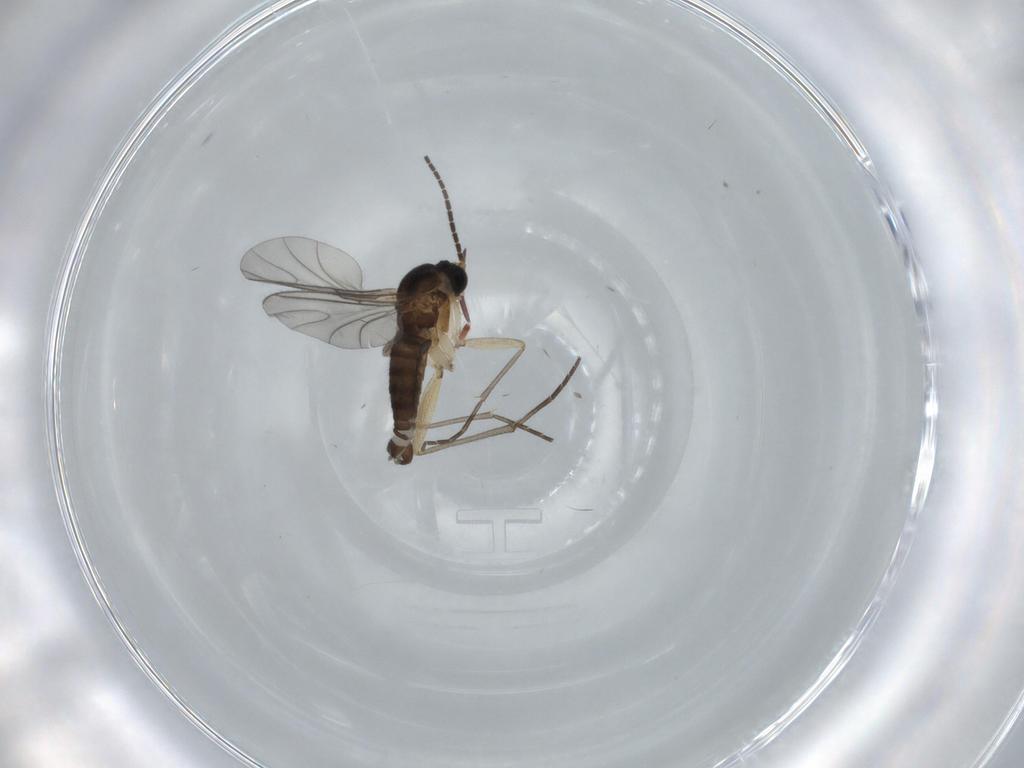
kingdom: Animalia
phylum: Arthropoda
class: Insecta
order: Diptera
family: Sciaridae
